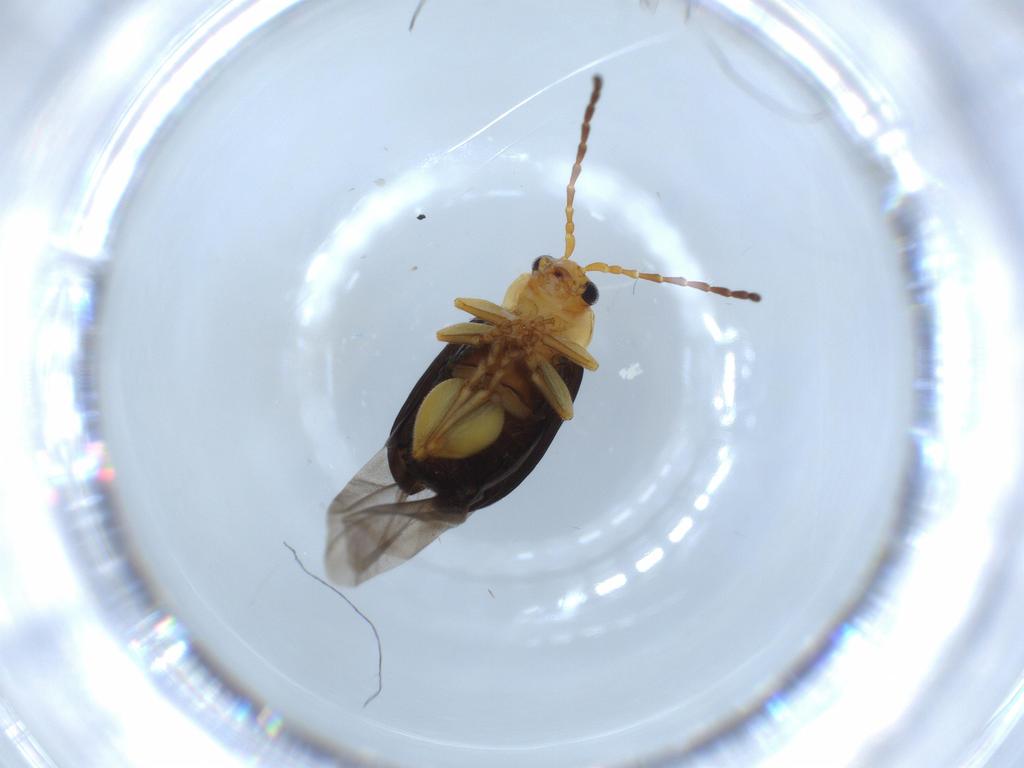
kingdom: Animalia
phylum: Arthropoda
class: Insecta
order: Coleoptera
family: Chrysomelidae
